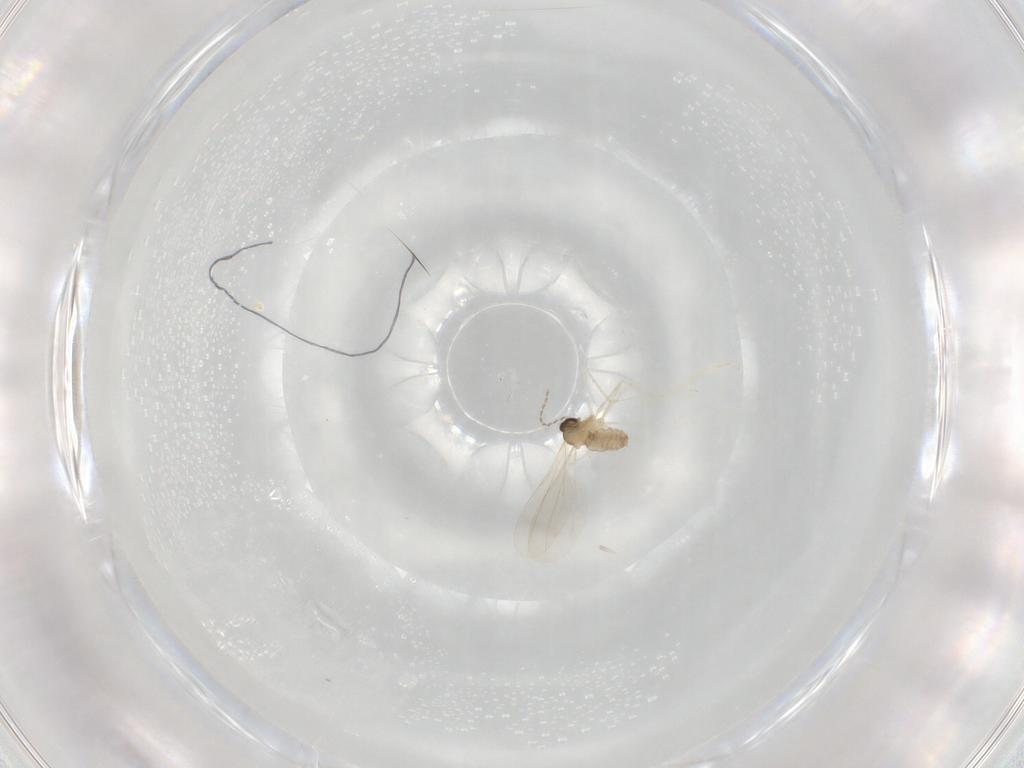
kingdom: Animalia
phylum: Arthropoda
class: Insecta
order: Diptera
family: Cecidomyiidae
